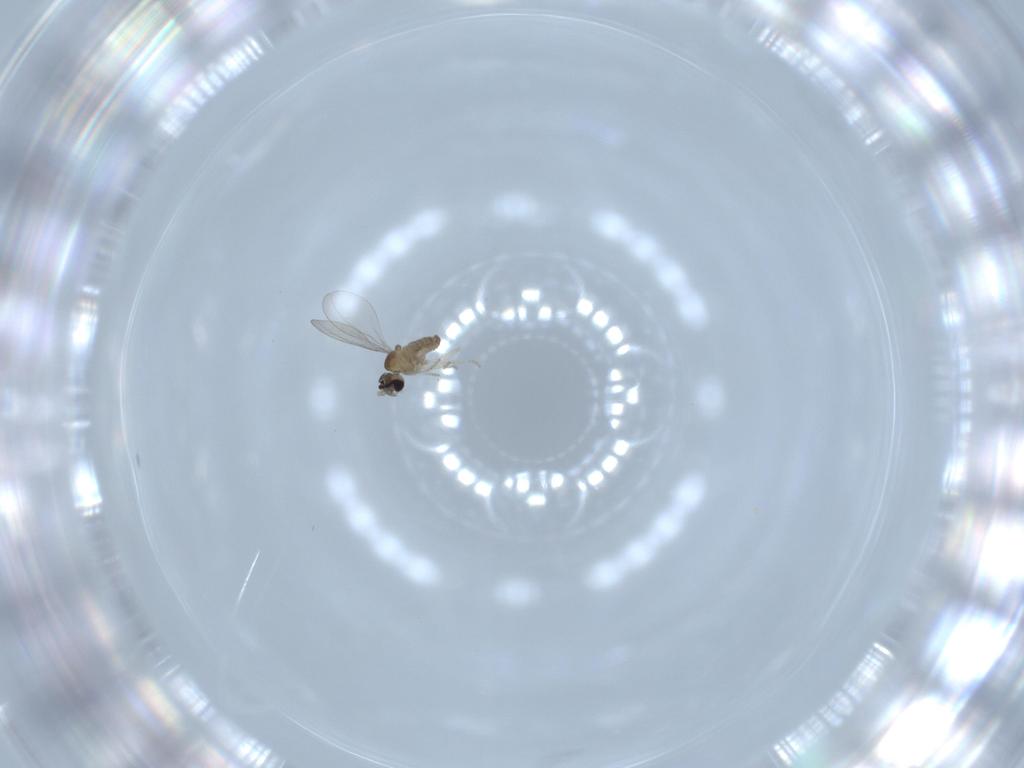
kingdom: Animalia
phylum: Arthropoda
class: Insecta
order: Diptera
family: Cecidomyiidae
